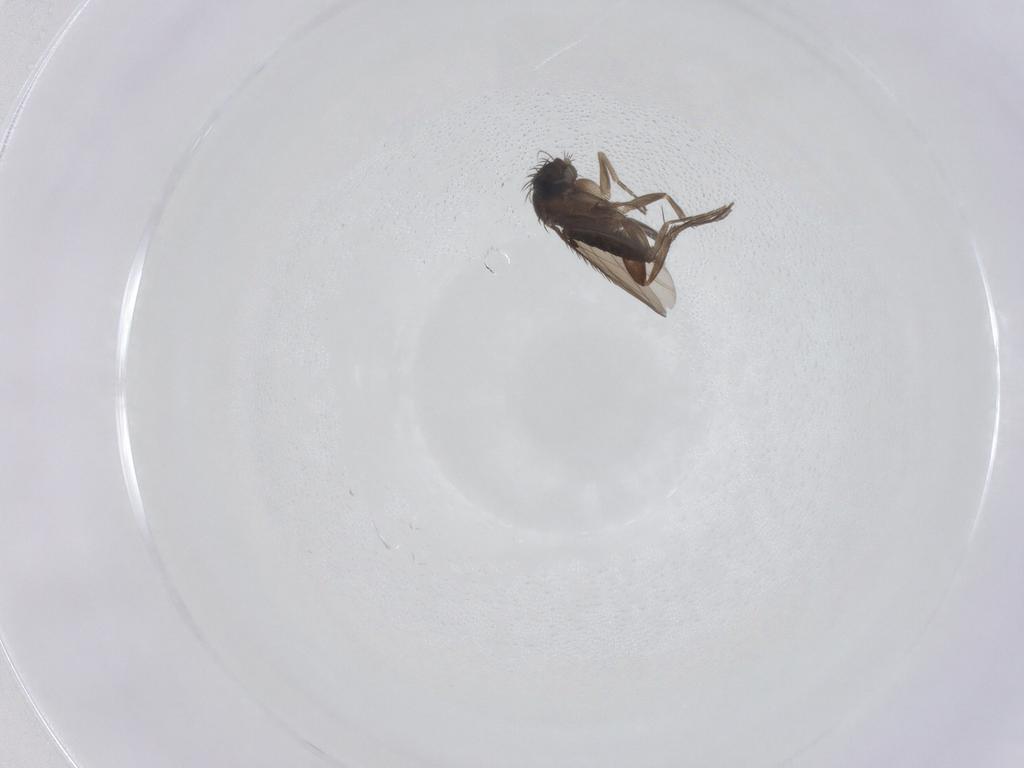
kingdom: Animalia
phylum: Arthropoda
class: Insecta
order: Diptera
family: Phoridae
